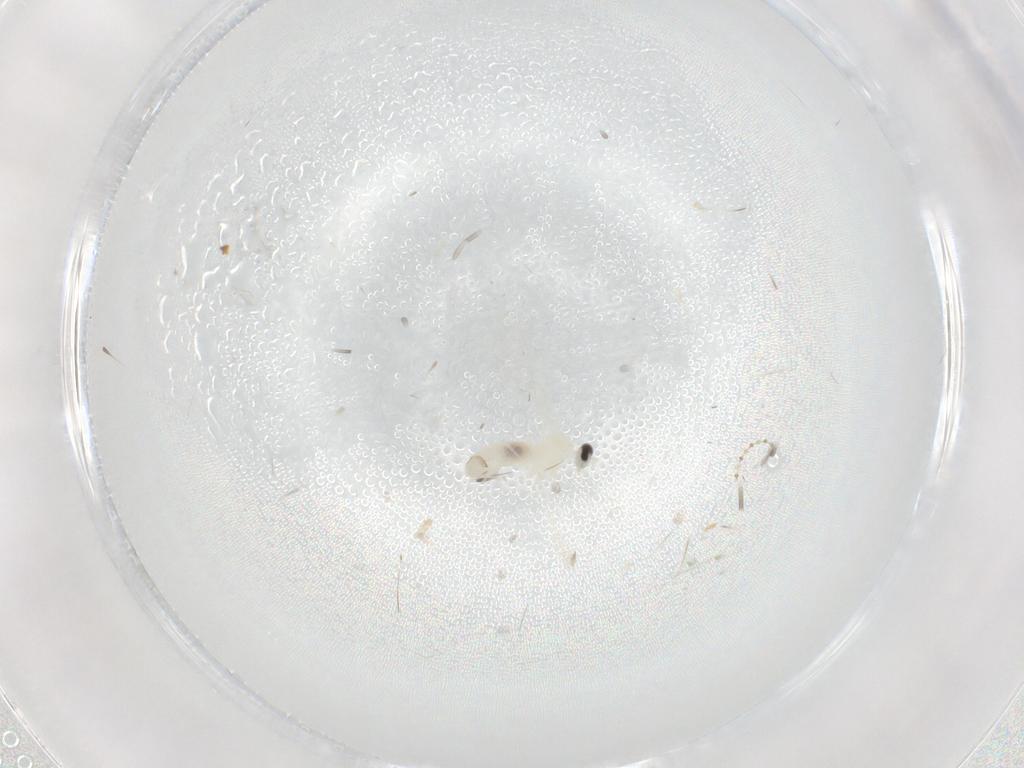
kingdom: Animalia
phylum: Arthropoda
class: Insecta
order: Diptera
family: Cecidomyiidae
